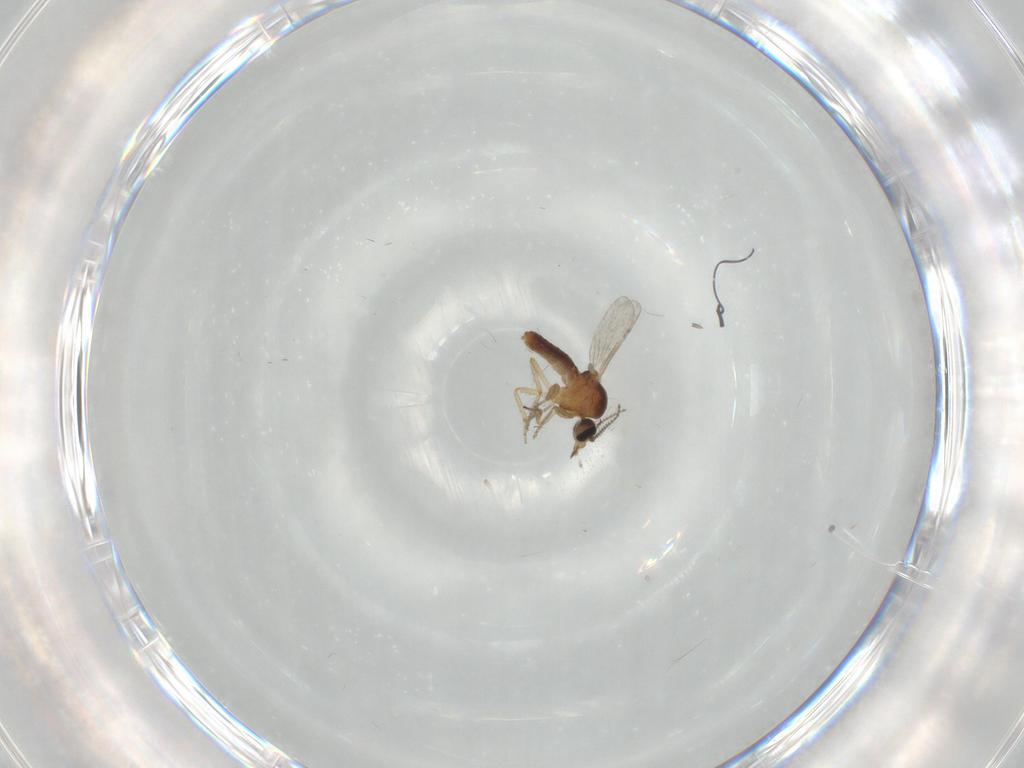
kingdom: Animalia
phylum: Arthropoda
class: Insecta
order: Diptera
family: Ceratopogonidae
